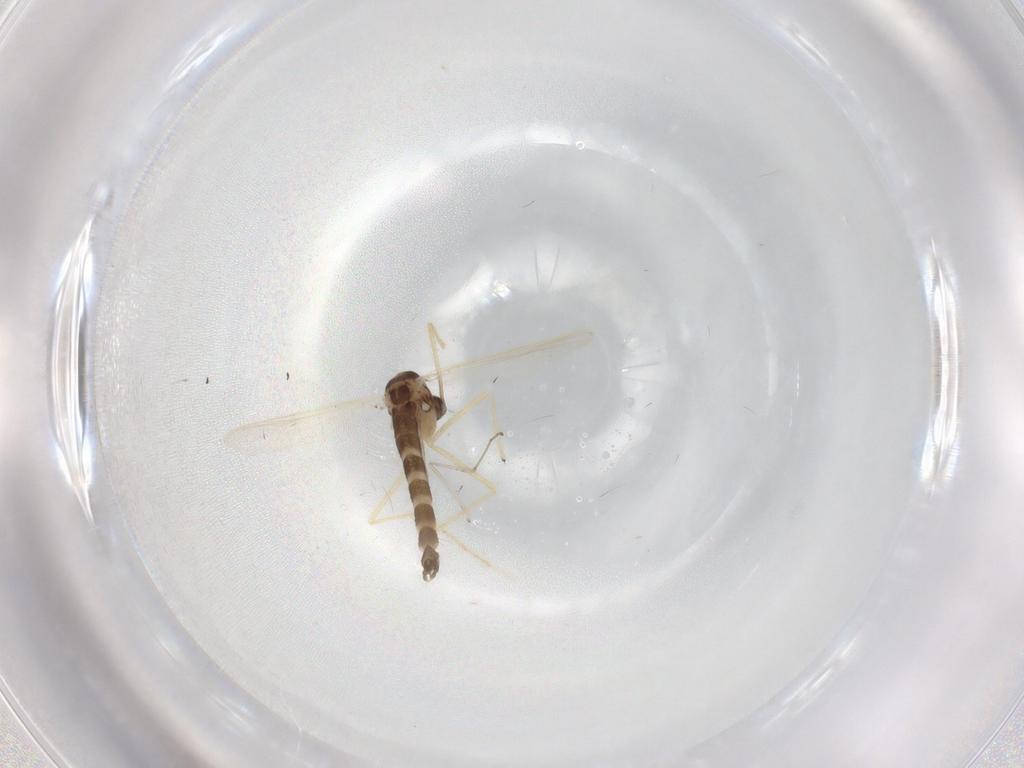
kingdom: Animalia
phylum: Arthropoda
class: Insecta
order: Diptera
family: Chironomidae
